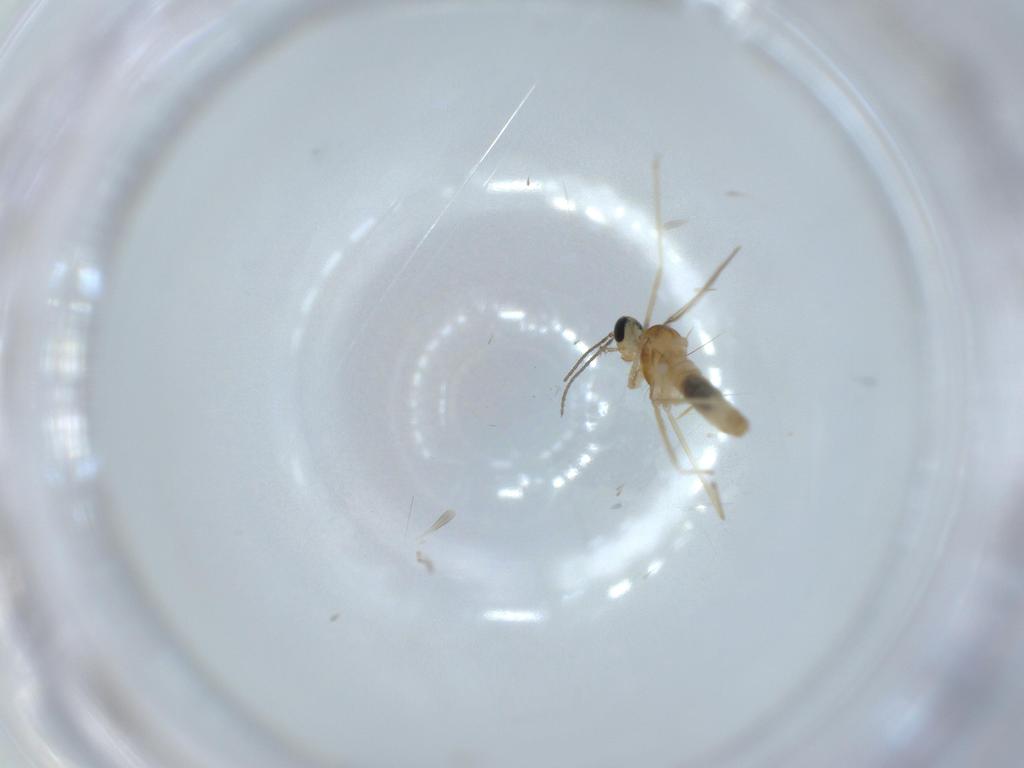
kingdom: Animalia
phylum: Arthropoda
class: Insecta
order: Diptera
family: Cecidomyiidae
